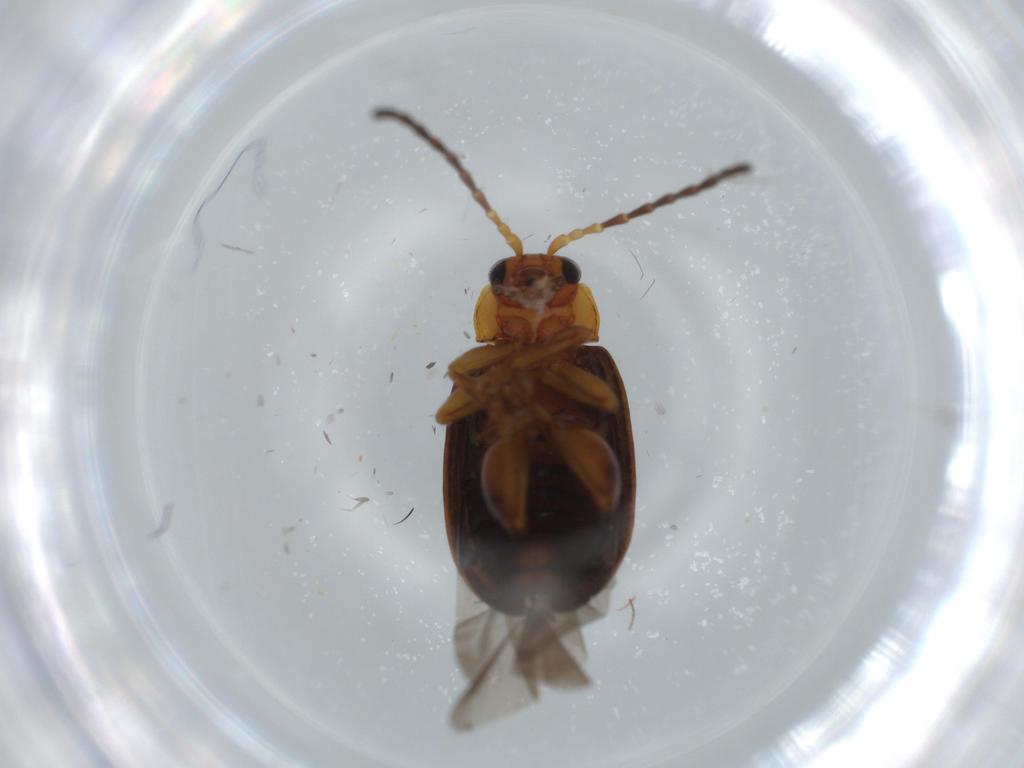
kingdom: Animalia
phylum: Arthropoda
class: Insecta
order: Coleoptera
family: Chrysomelidae
